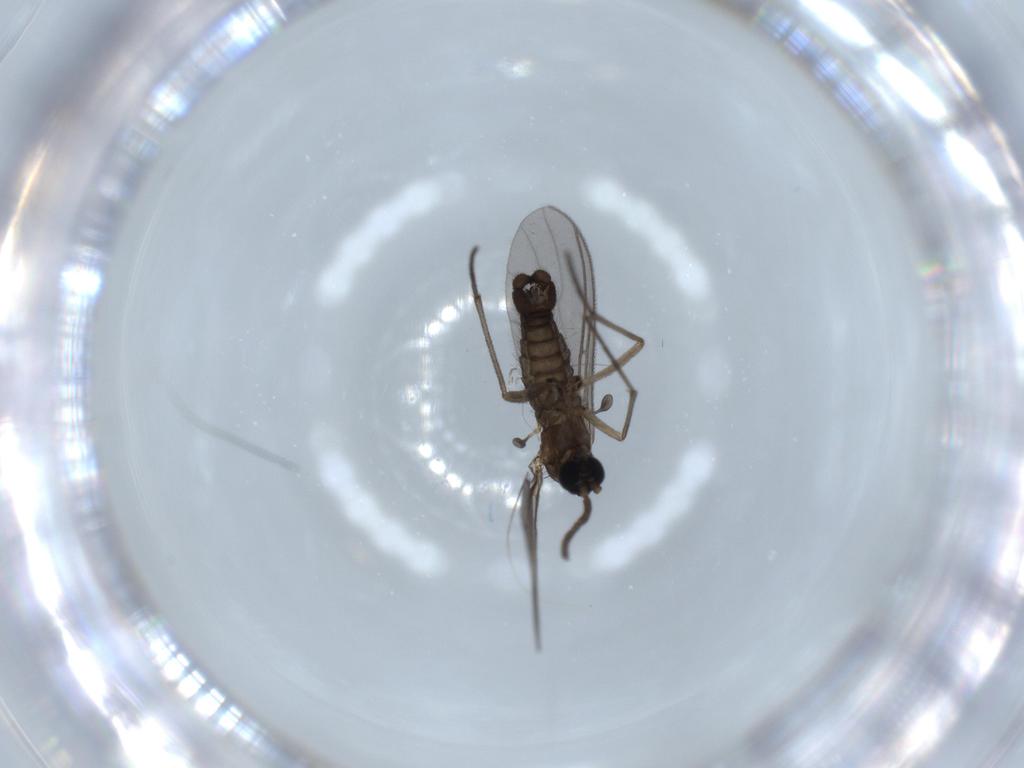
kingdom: Animalia
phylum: Arthropoda
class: Insecta
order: Diptera
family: Sciaridae
